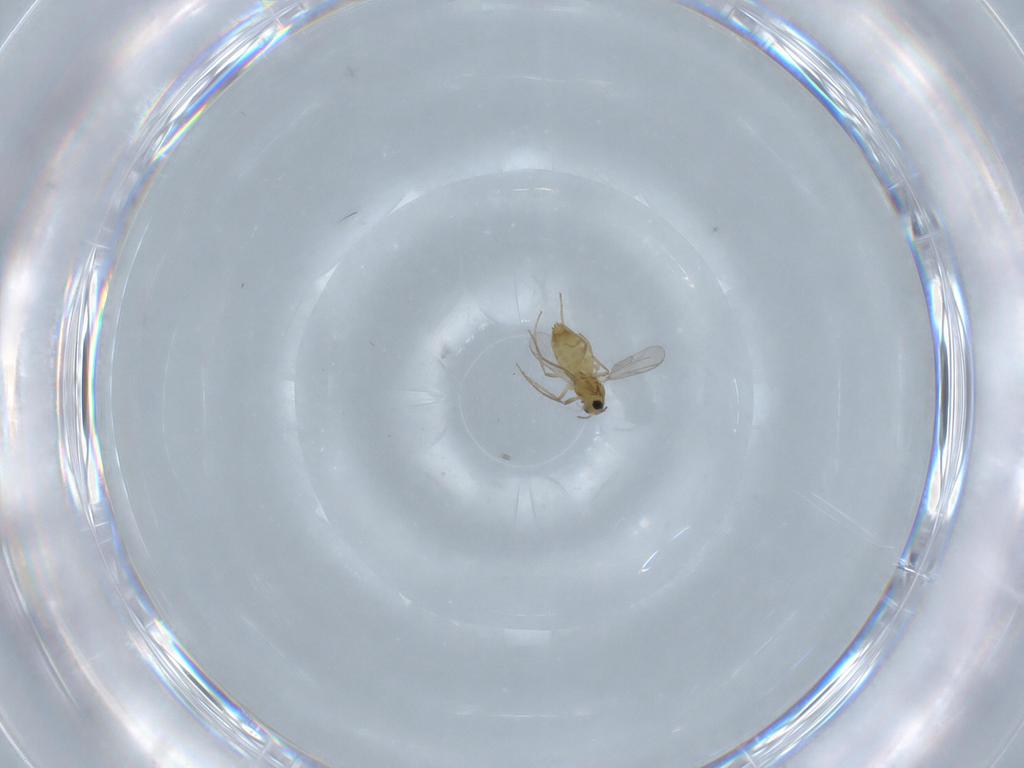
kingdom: Animalia
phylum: Arthropoda
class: Insecta
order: Diptera
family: Chironomidae
